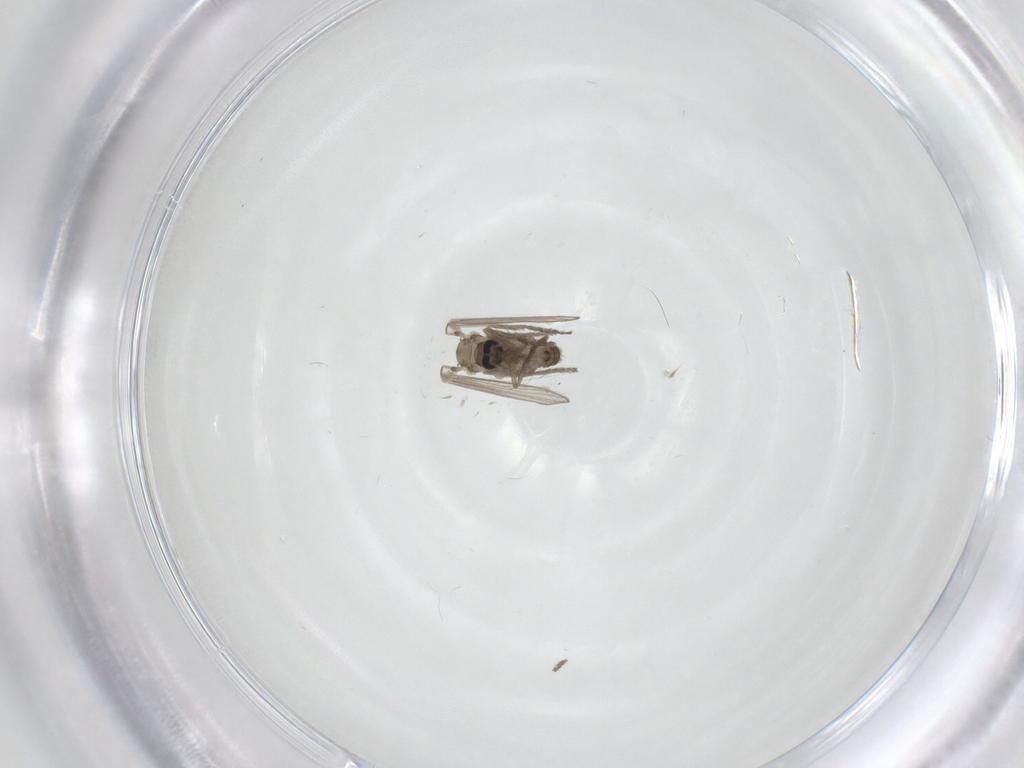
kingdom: Animalia
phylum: Arthropoda
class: Insecta
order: Diptera
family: Psychodidae
